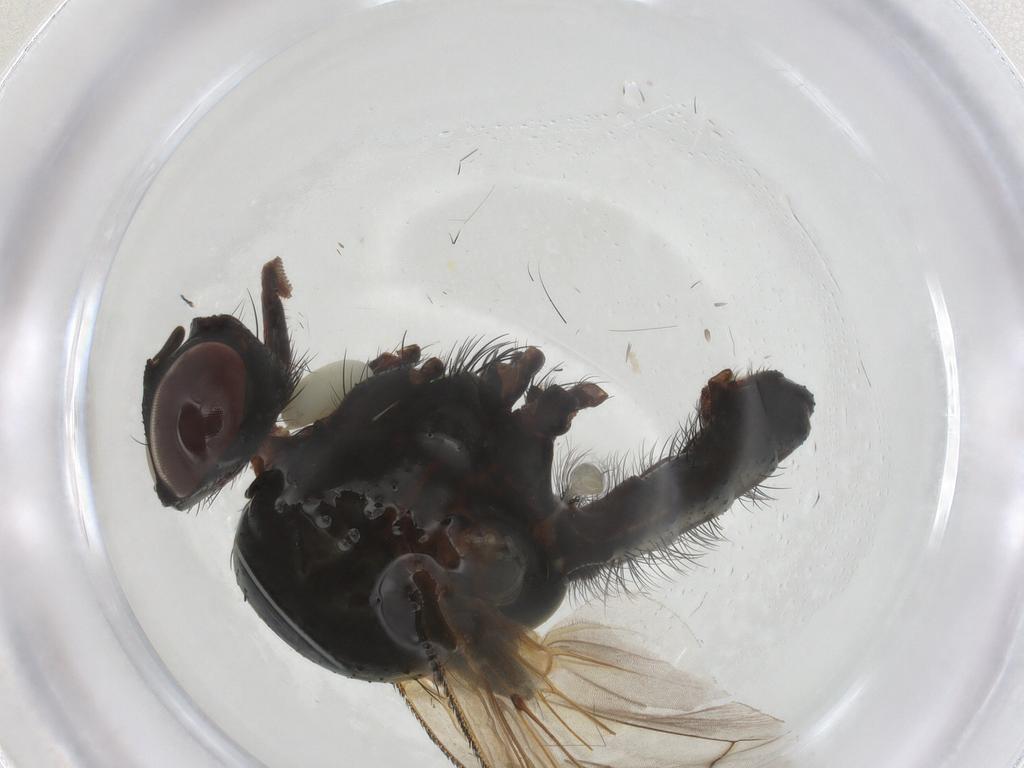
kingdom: Animalia
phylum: Arthropoda
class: Insecta
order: Diptera
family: Anthomyiidae
